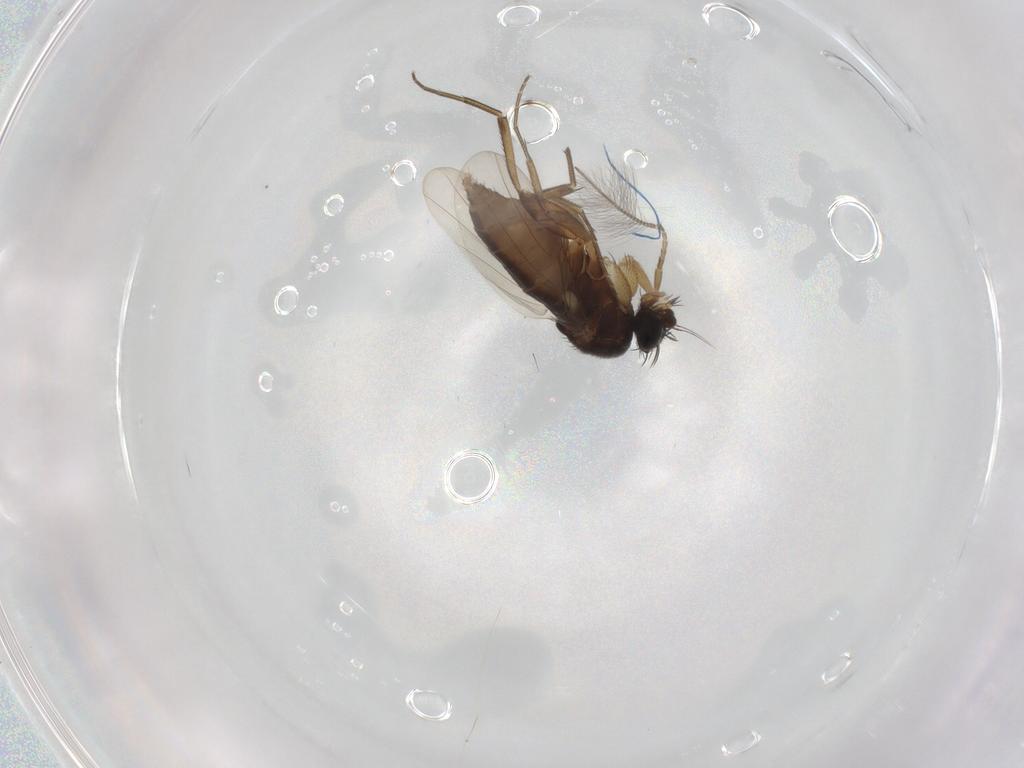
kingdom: Animalia
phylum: Arthropoda
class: Insecta
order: Diptera
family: Phoridae
